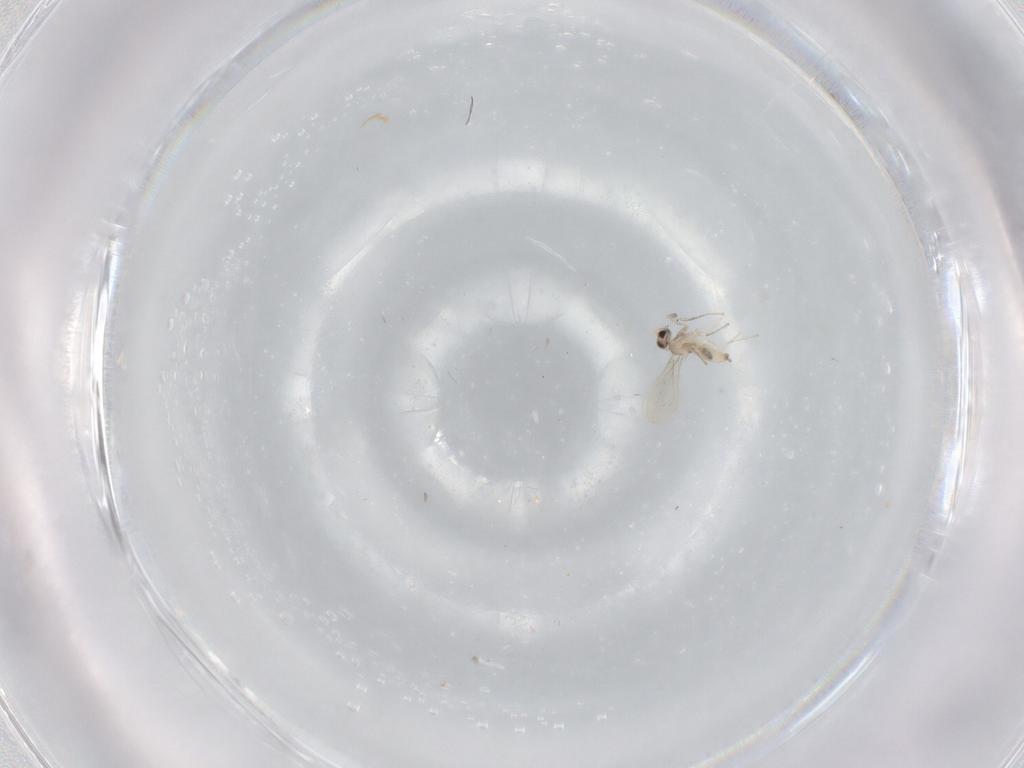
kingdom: Animalia
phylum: Arthropoda
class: Insecta
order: Diptera
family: Cecidomyiidae
